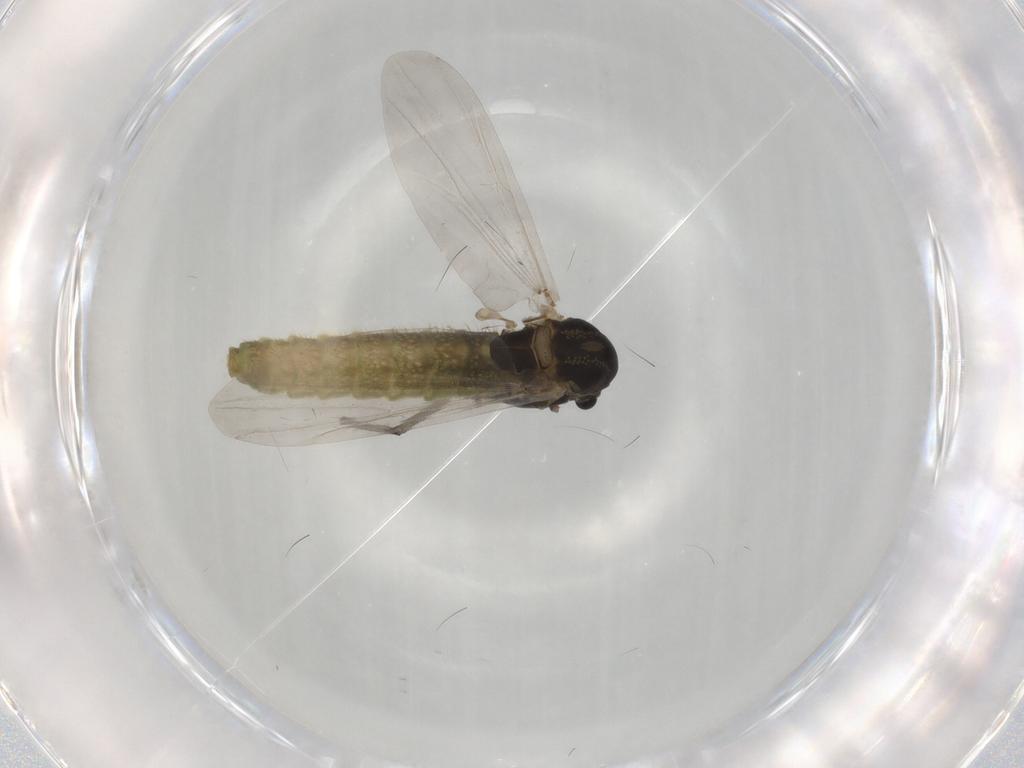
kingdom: Animalia
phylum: Arthropoda
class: Insecta
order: Diptera
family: Chironomidae
